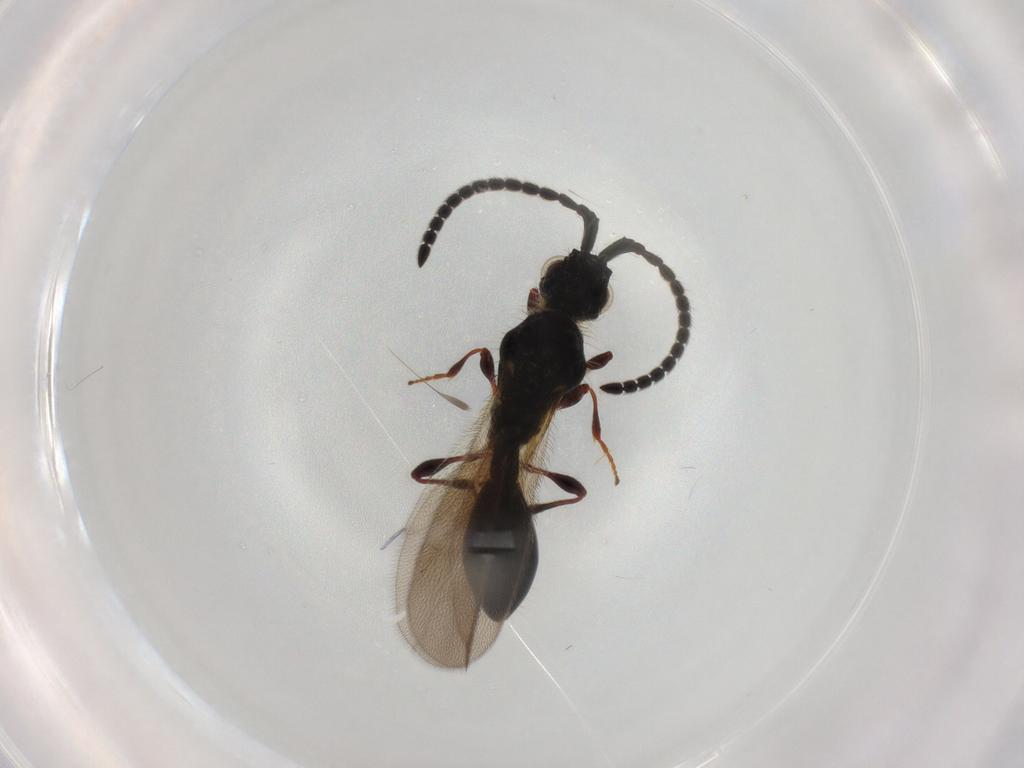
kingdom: Animalia
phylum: Arthropoda
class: Insecta
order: Hymenoptera
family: Diapriidae
